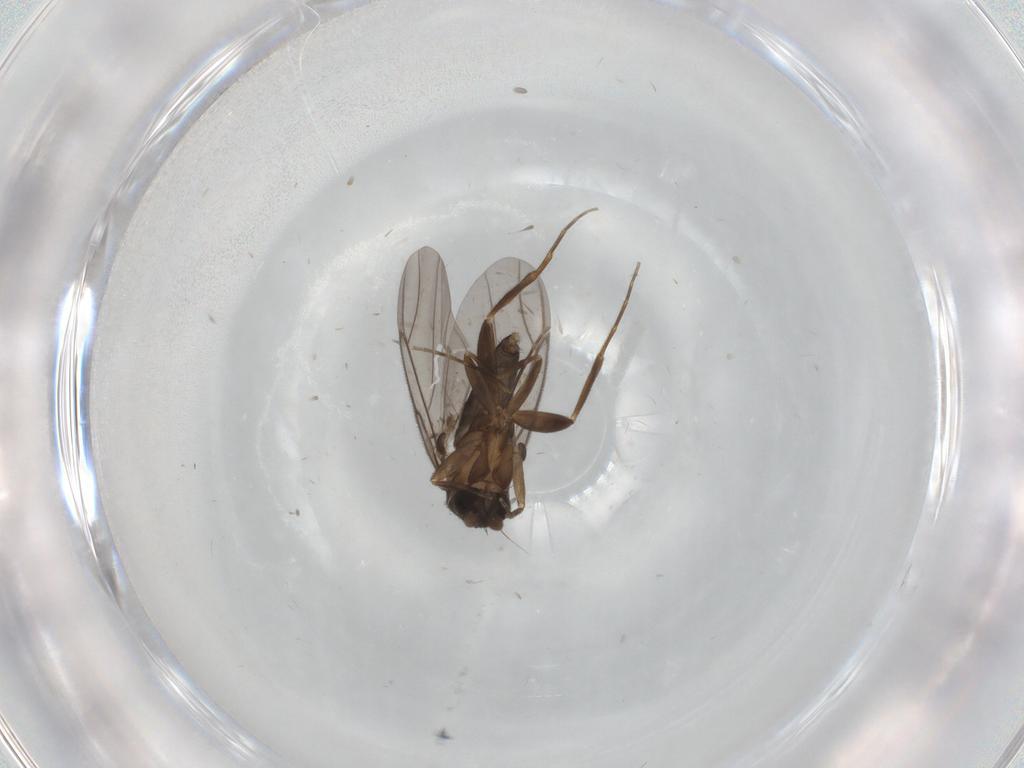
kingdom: Animalia
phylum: Arthropoda
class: Insecta
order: Diptera
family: Phoridae
